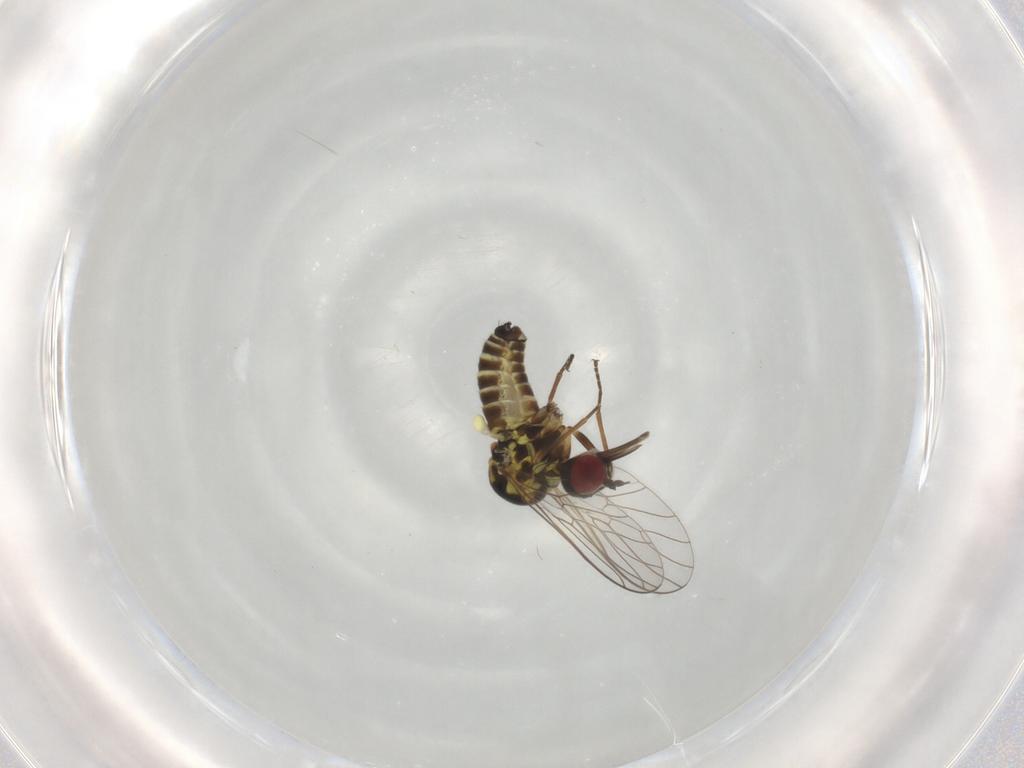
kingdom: Animalia
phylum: Arthropoda
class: Insecta
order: Diptera
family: Bombyliidae
